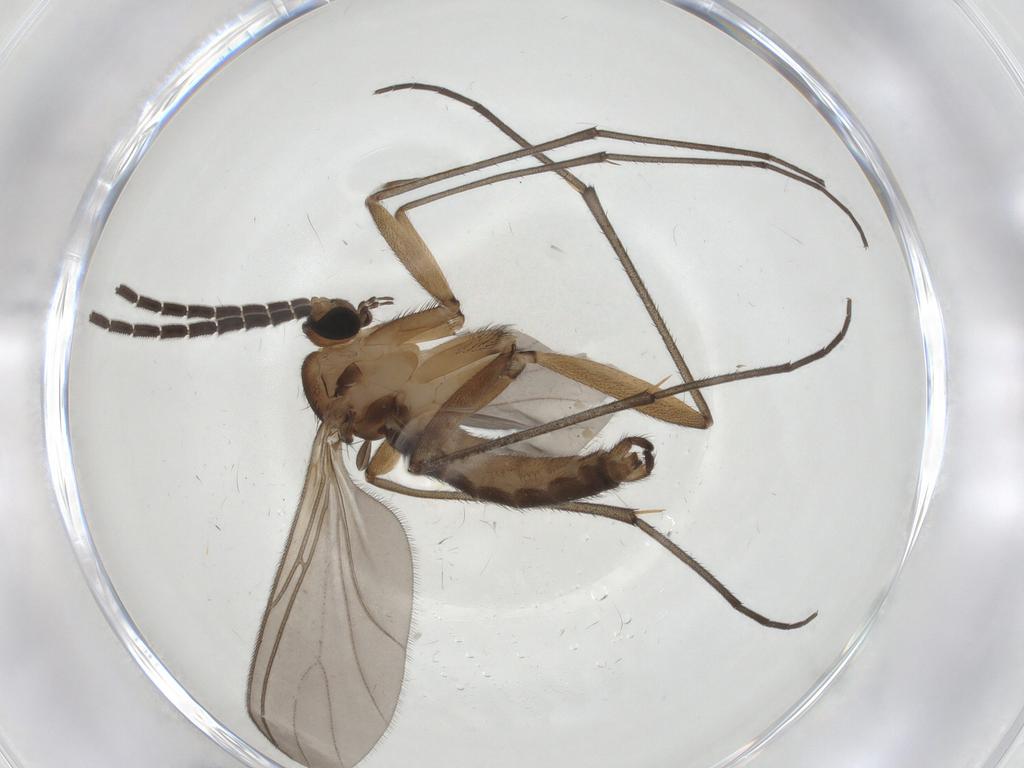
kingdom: Animalia
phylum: Arthropoda
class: Insecta
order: Diptera
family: Sciaridae
